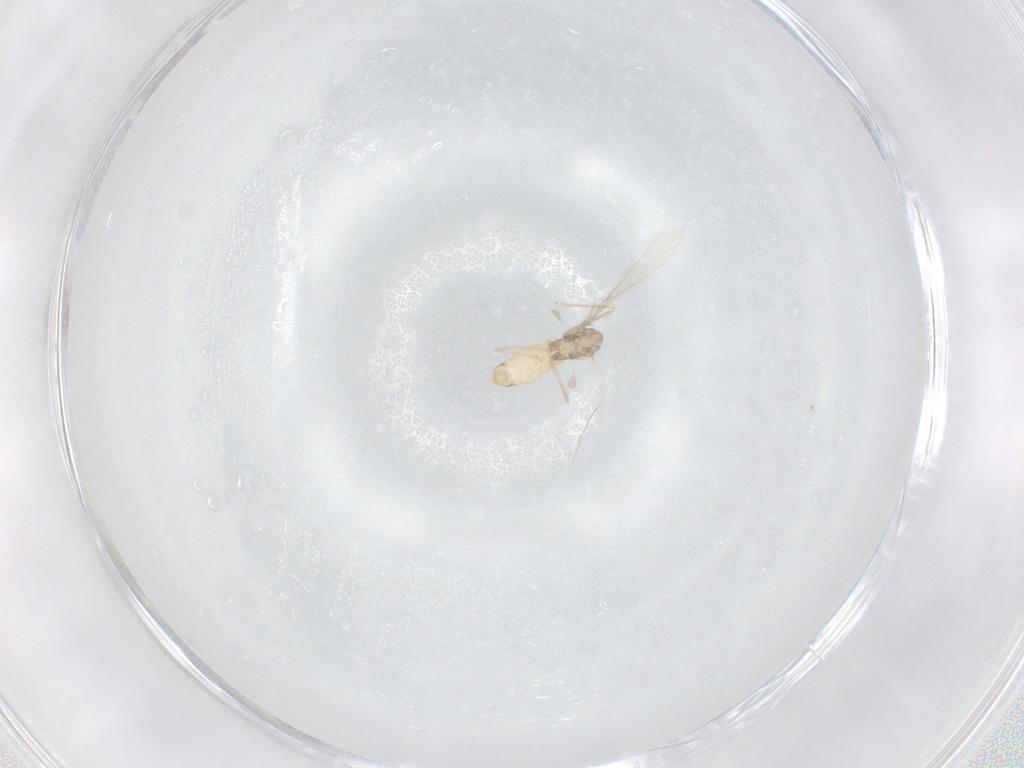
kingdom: Animalia
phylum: Arthropoda
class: Insecta
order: Diptera
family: Cecidomyiidae
